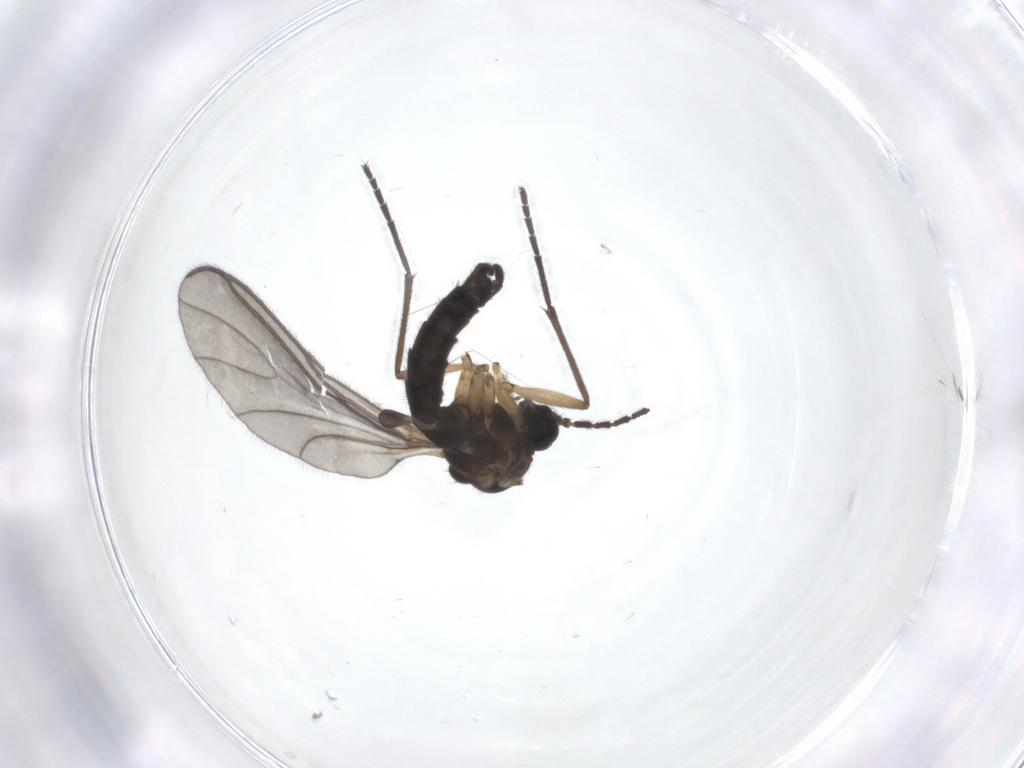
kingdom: Animalia
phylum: Arthropoda
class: Insecta
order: Diptera
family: Sciaridae
